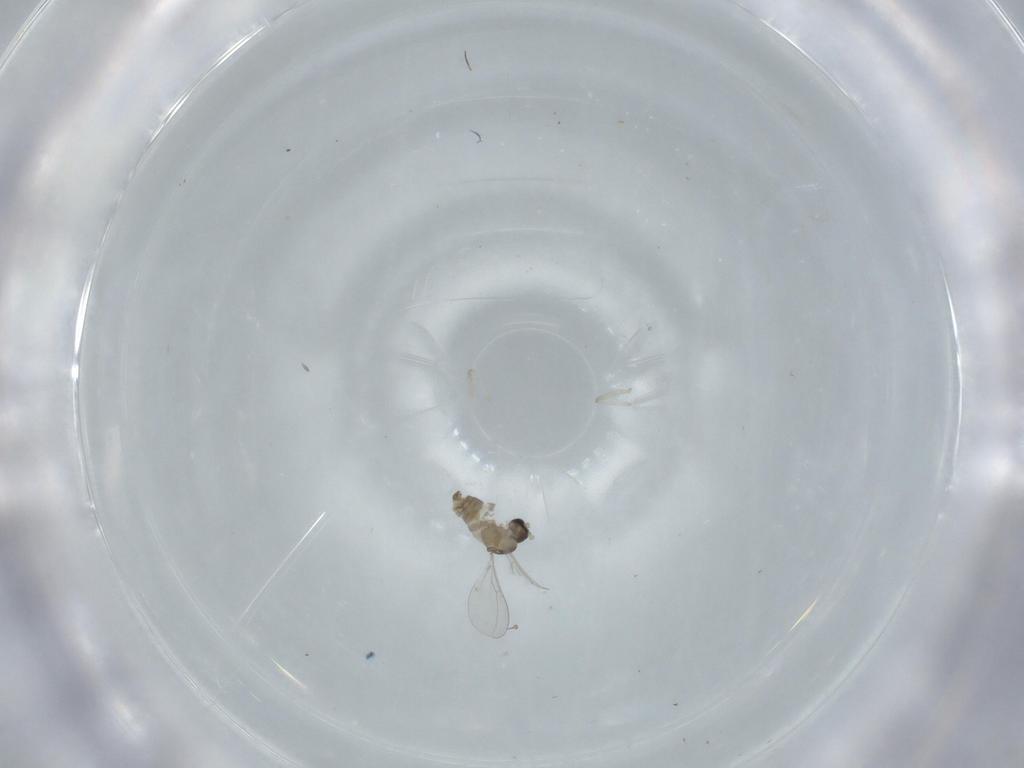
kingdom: Animalia
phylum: Arthropoda
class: Insecta
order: Diptera
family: Cecidomyiidae
